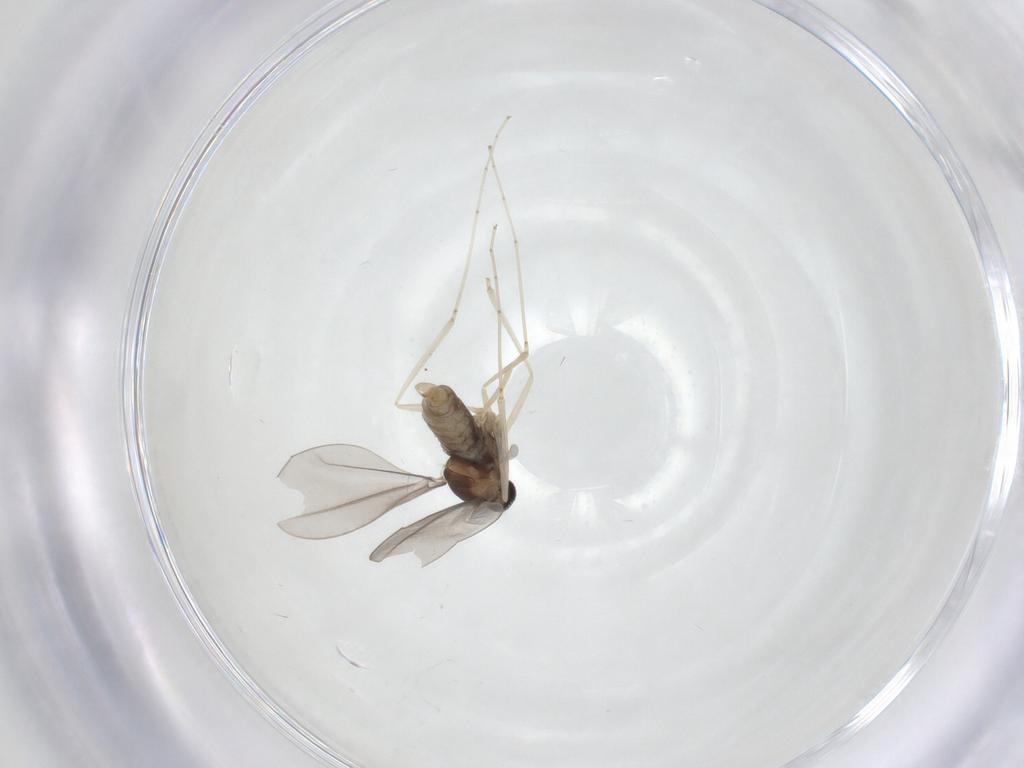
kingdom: Animalia
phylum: Arthropoda
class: Insecta
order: Diptera
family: Cecidomyiidae
